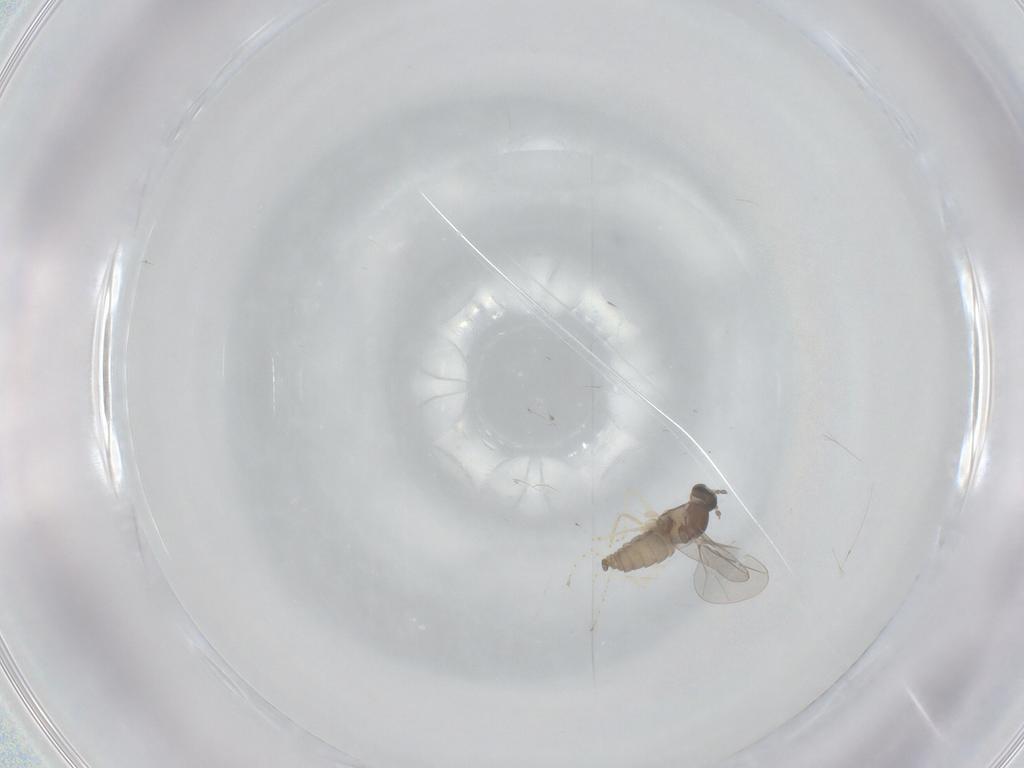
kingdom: Animalia
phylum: Arthropoda
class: Insecta
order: Diptera
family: Cecidomyiidae
